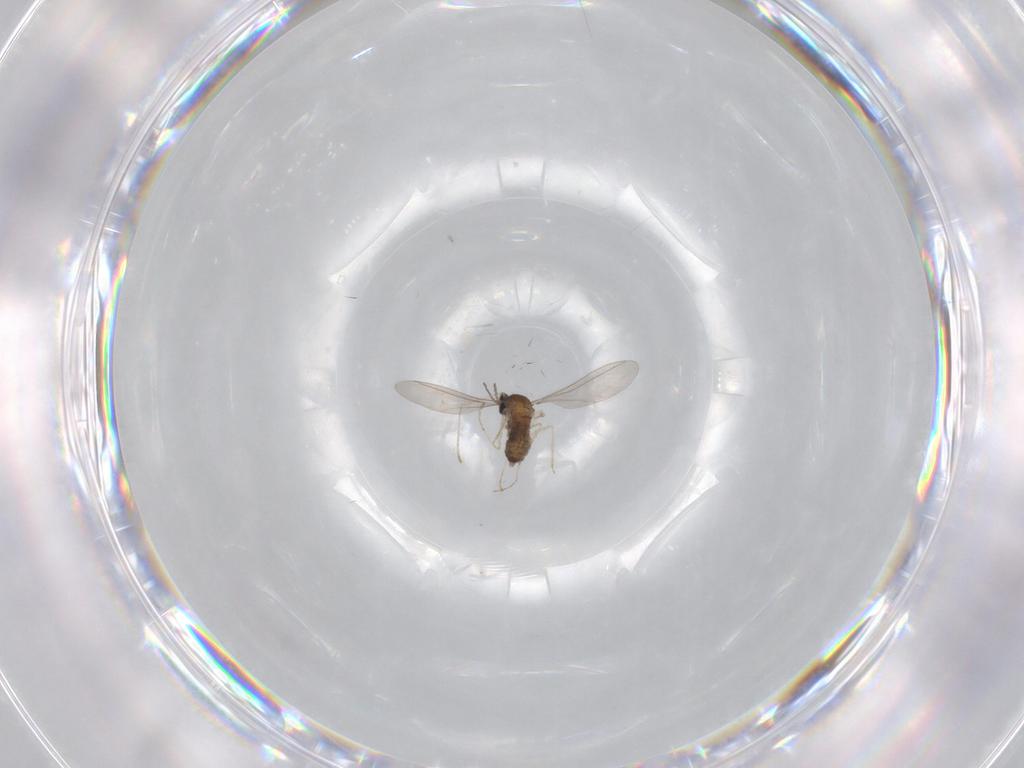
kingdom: Animalia
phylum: Arthropoda
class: Insecta
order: Diptera
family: Cecidomyiidae
